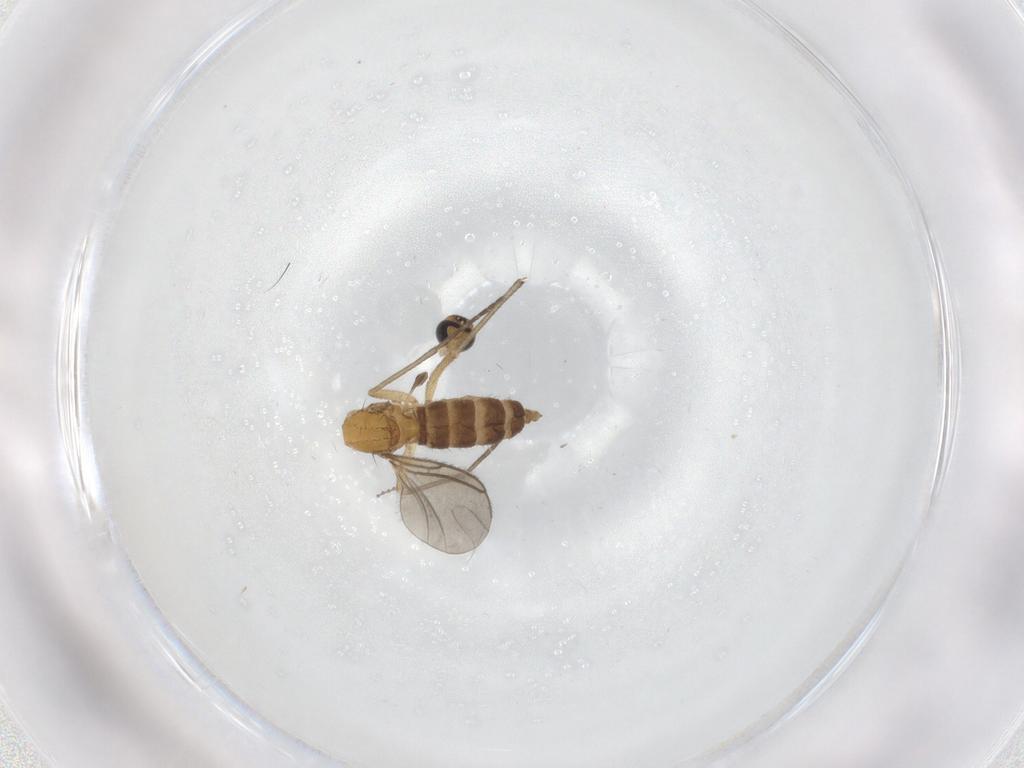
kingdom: Animalia
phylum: Arthropoda
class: Insecta
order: Diptera
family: Sciaridae
